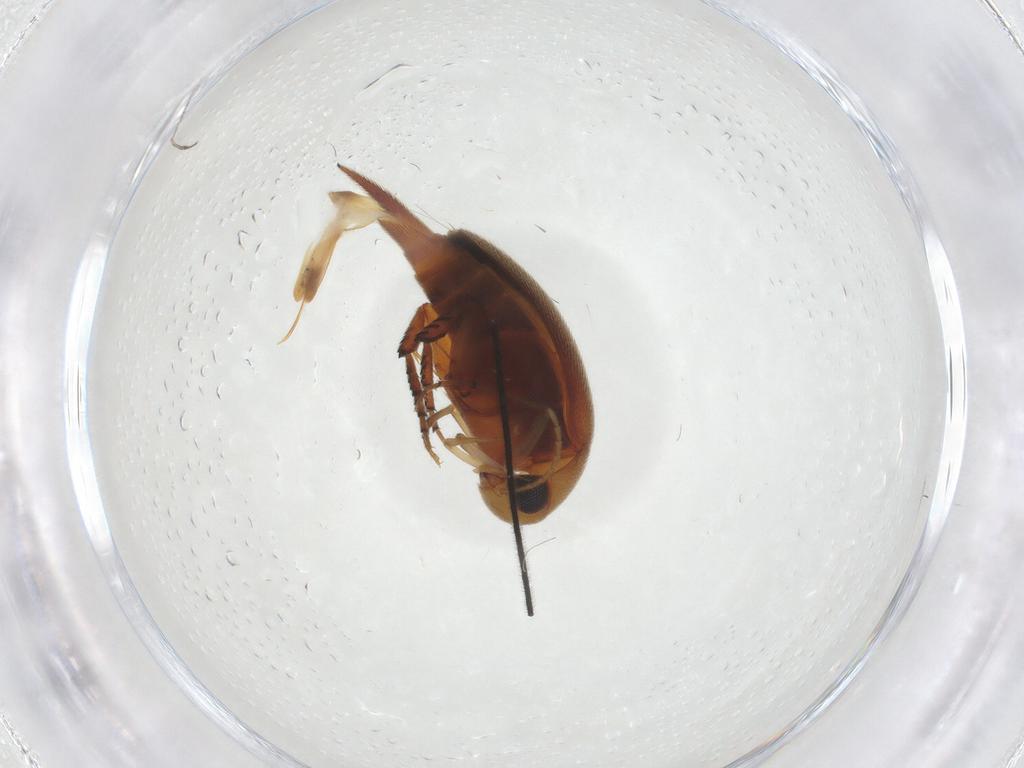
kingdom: Animalia
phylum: Arthropoda
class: Insecta
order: Coleoptera
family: Mordellidae
